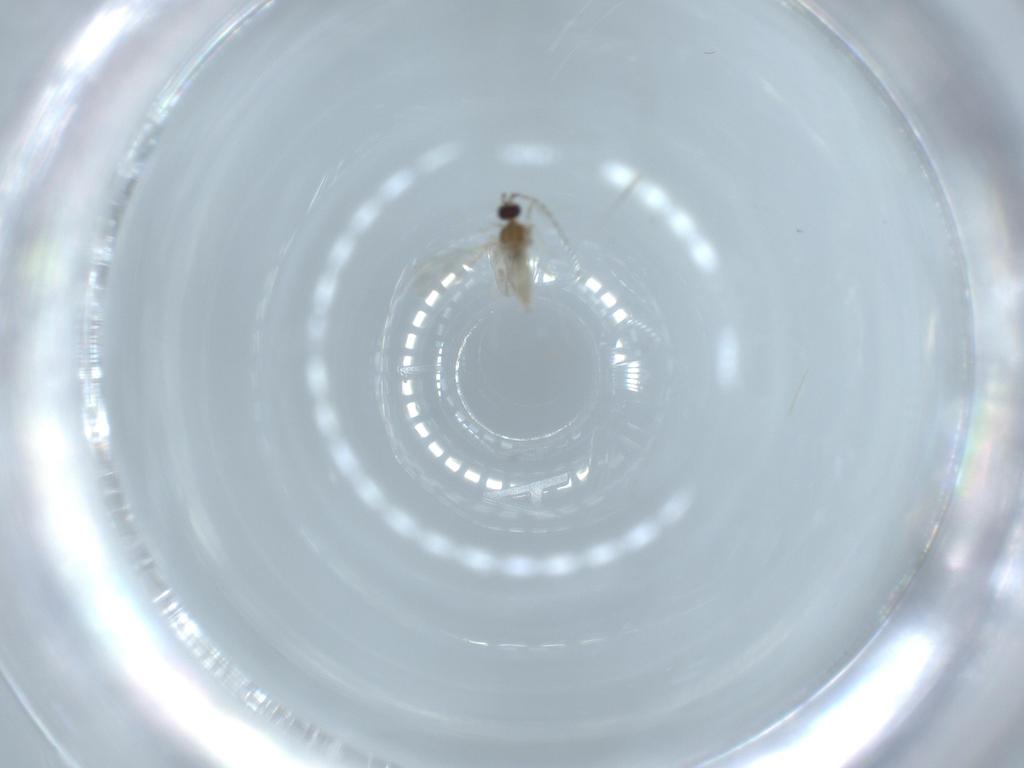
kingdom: Animalia
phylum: Arthropoda
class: Insecta
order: Diptera
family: Cecidomyiidae
